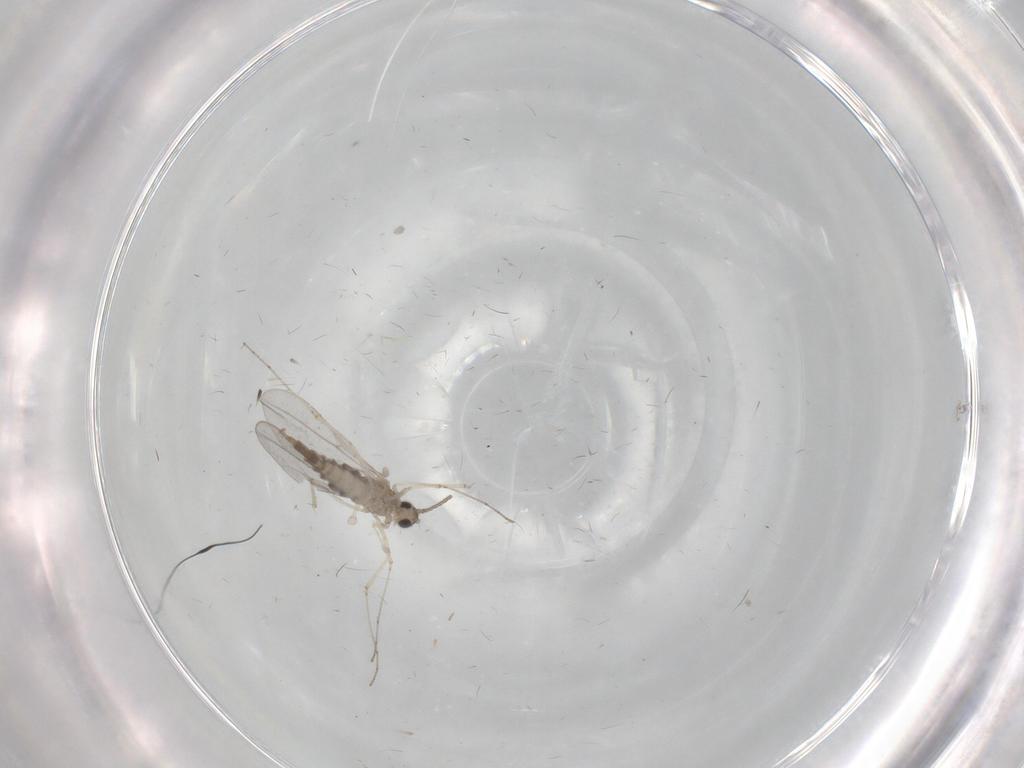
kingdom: Animalia
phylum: Arthropoda
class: Insecta
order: Diptera
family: Cecidomyiidae
